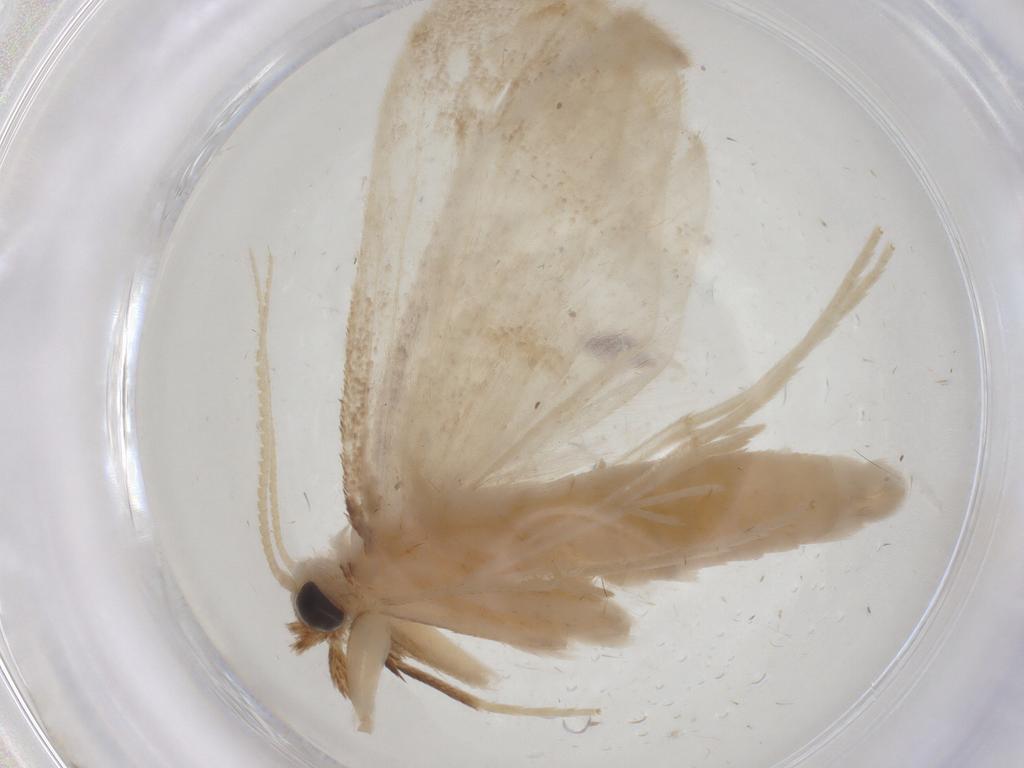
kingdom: Animalia
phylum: Arthropoda
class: Insecta
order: Lepidoptera
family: Crambidae
